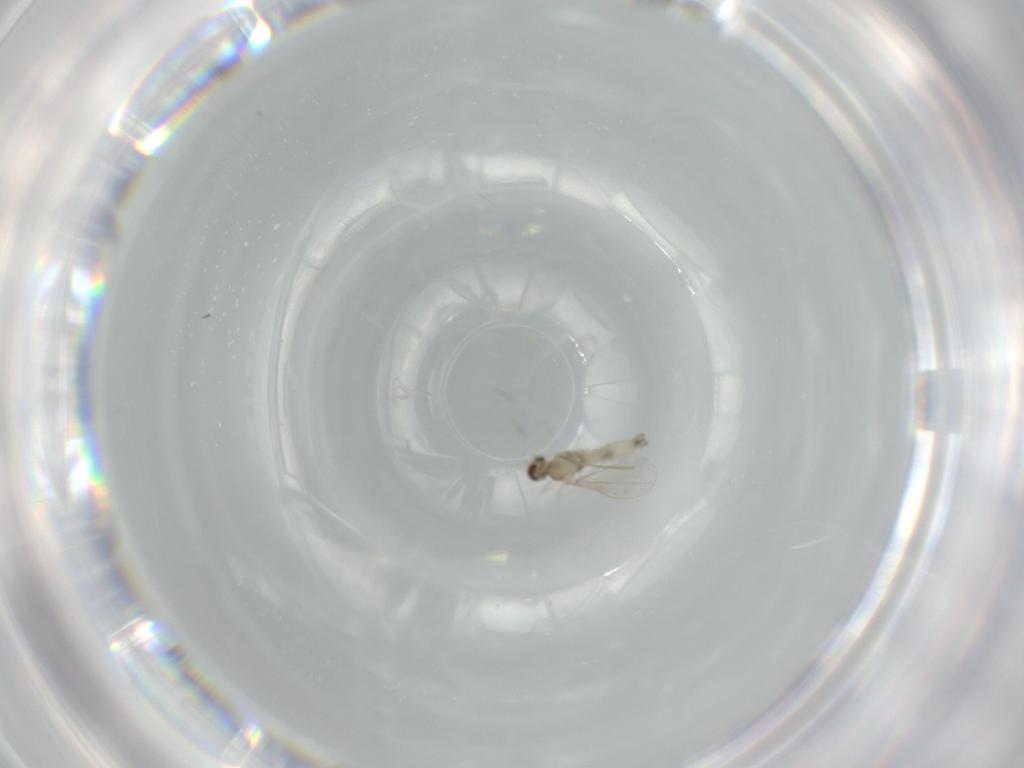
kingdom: Animalia
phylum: Arthropoda
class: Insecta
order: Diptera
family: Cecidomyiidae
